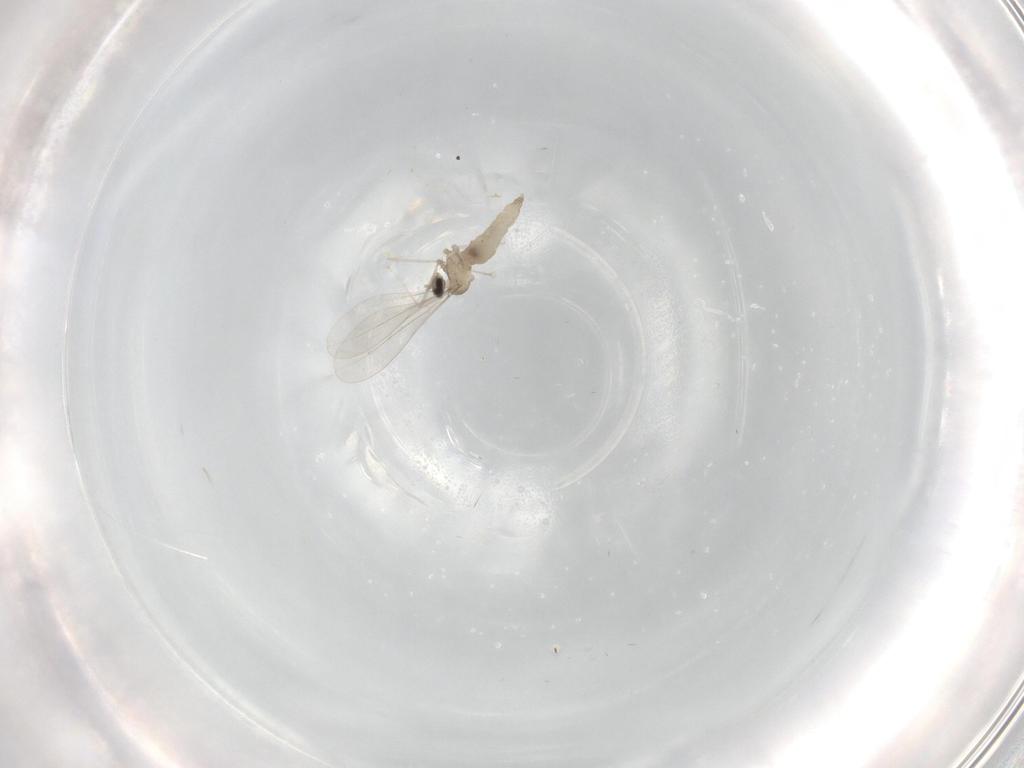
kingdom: Animalia
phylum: Arthropoda
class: Insecta
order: Diptera
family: Cecidomyiidae
